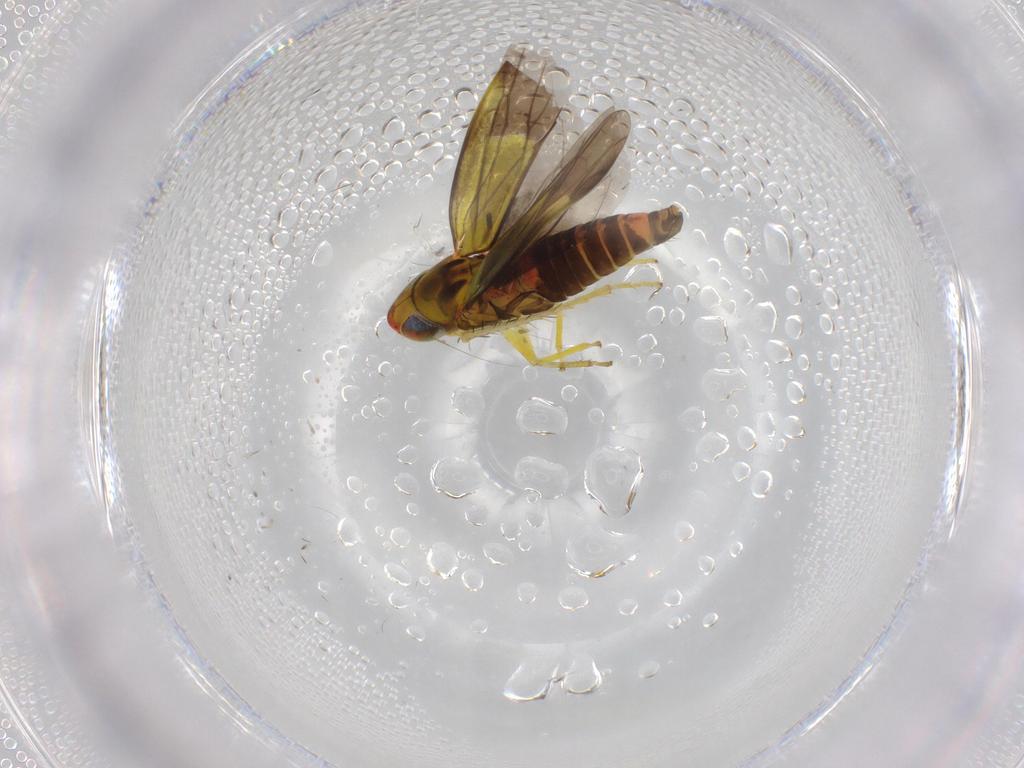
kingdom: Animalia
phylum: Arthropoda
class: Insecta
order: Hemiptera
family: Cicadellidae
